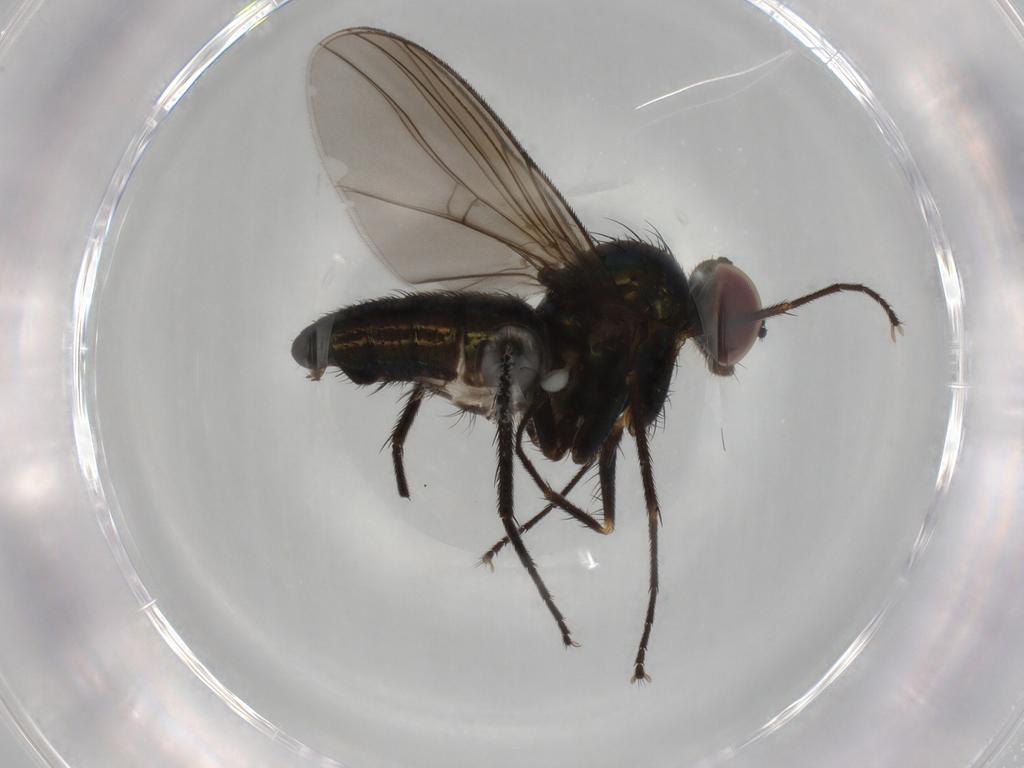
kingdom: Animalia
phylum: Arthropoda
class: Insecta
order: Diptera
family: Dolichopodidae
